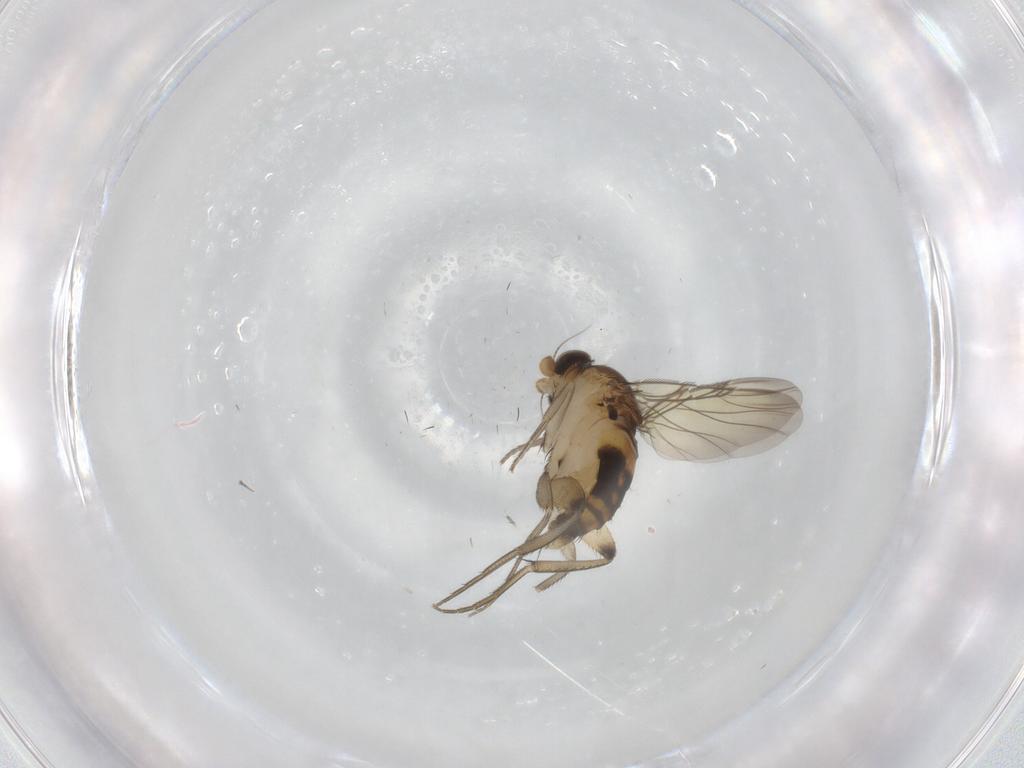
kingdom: Animalia
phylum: Arthropoda
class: Insecta
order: Diptera
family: Phoridae
